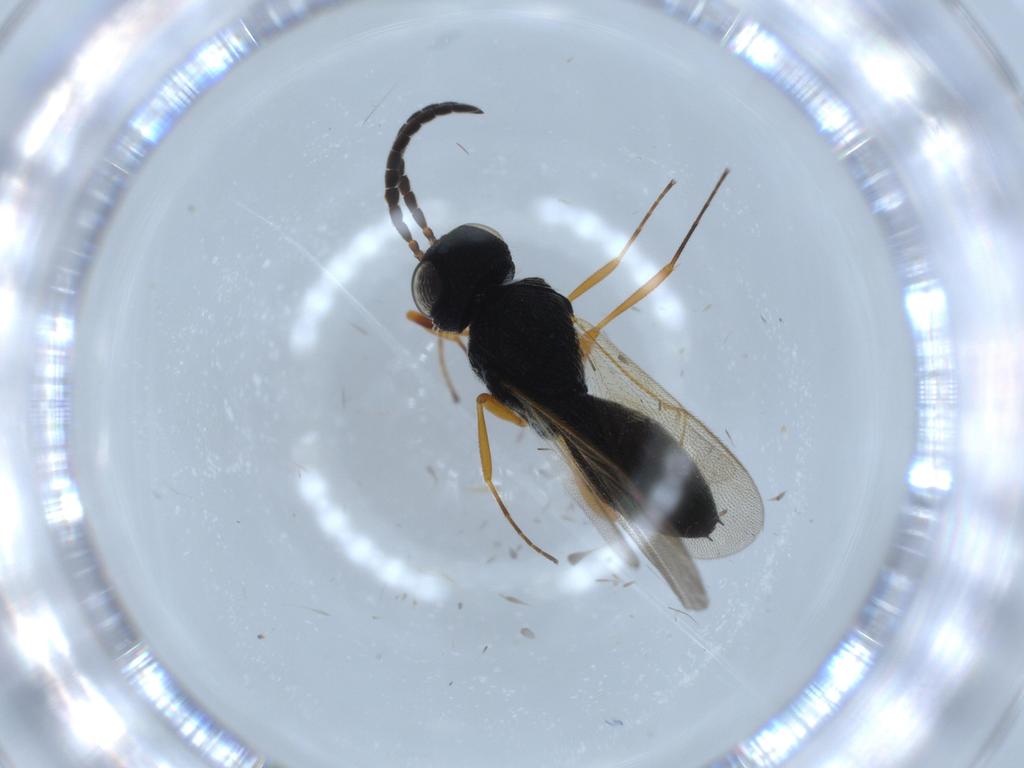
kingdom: Animalia
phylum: Arthropoda
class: Insecta
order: Hymenoptera
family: Scelionidae
